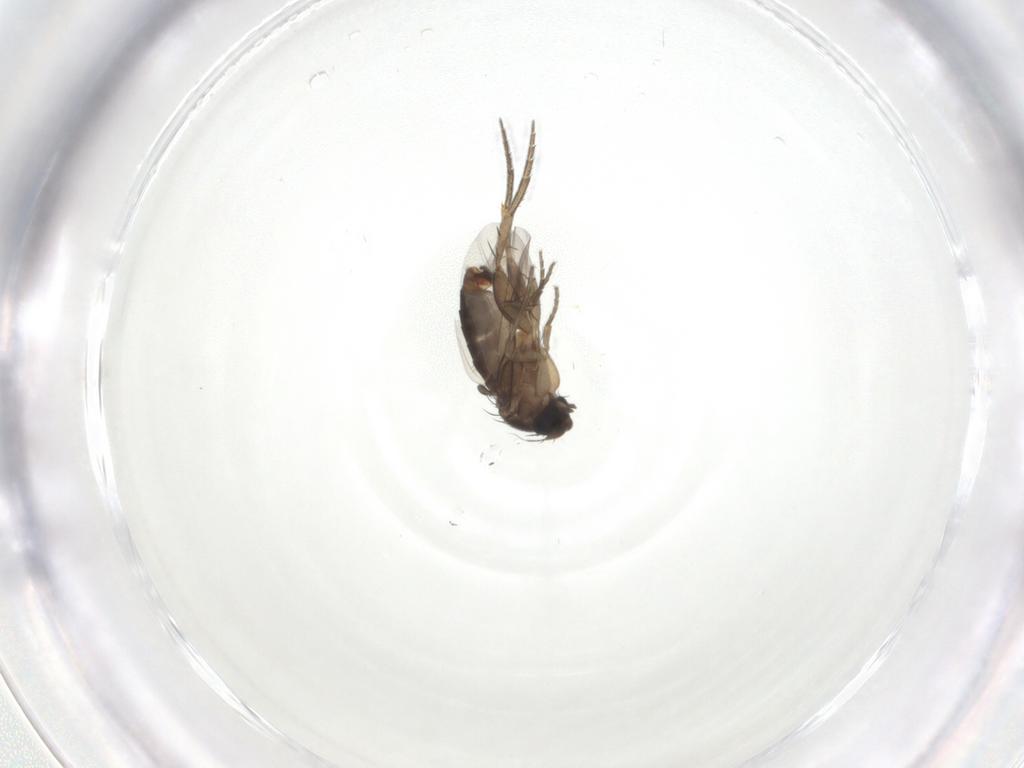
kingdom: Animalia
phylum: Arthropoda
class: Insecta
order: Diptera
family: Phoridae
